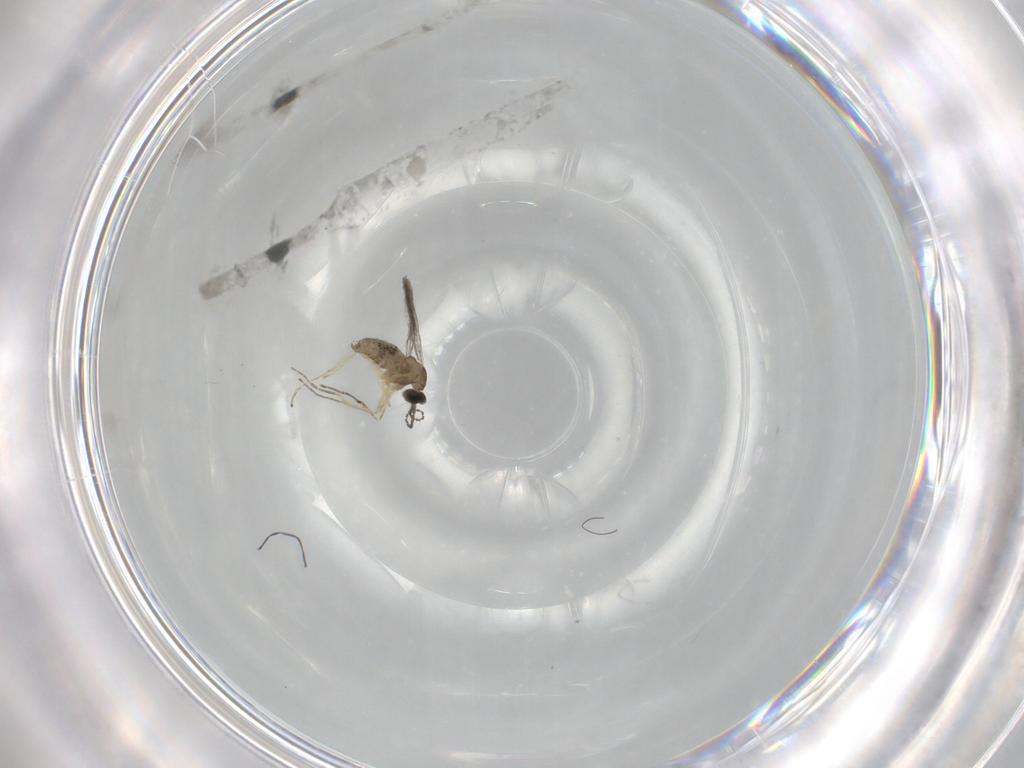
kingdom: Animalia
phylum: Arthropoda
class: Insecta
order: Diptera
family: Cecidomyiidae
